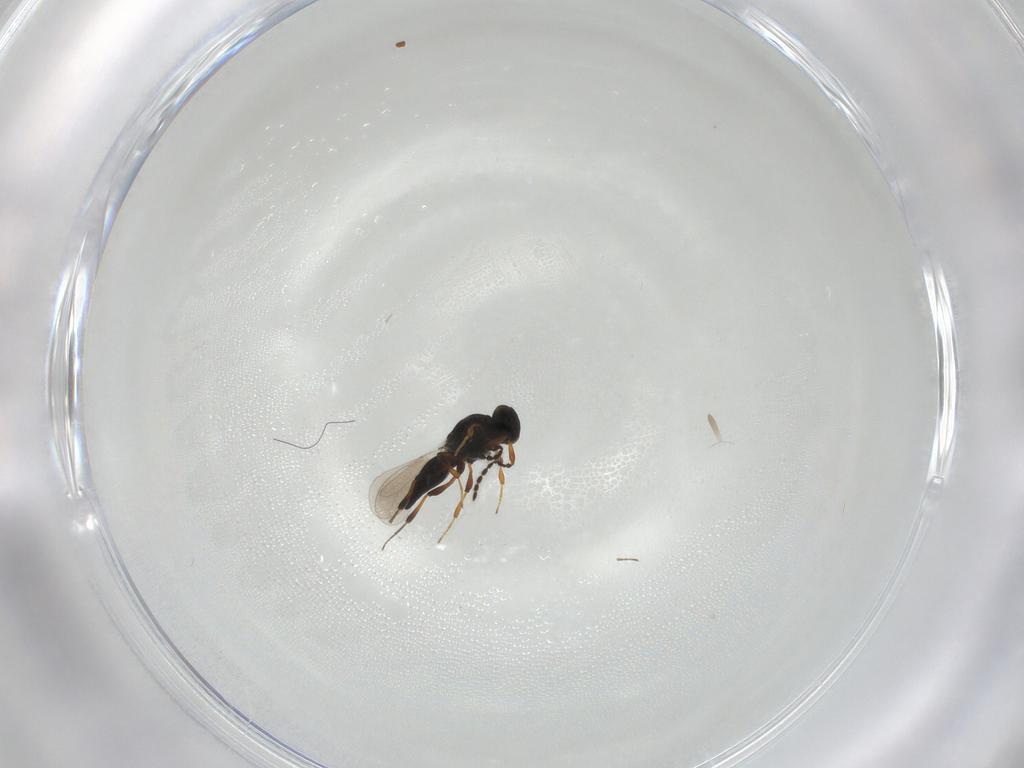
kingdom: Animalia
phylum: Arthropoda
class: Insecta
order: Hymenoptera
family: Platygastridae
